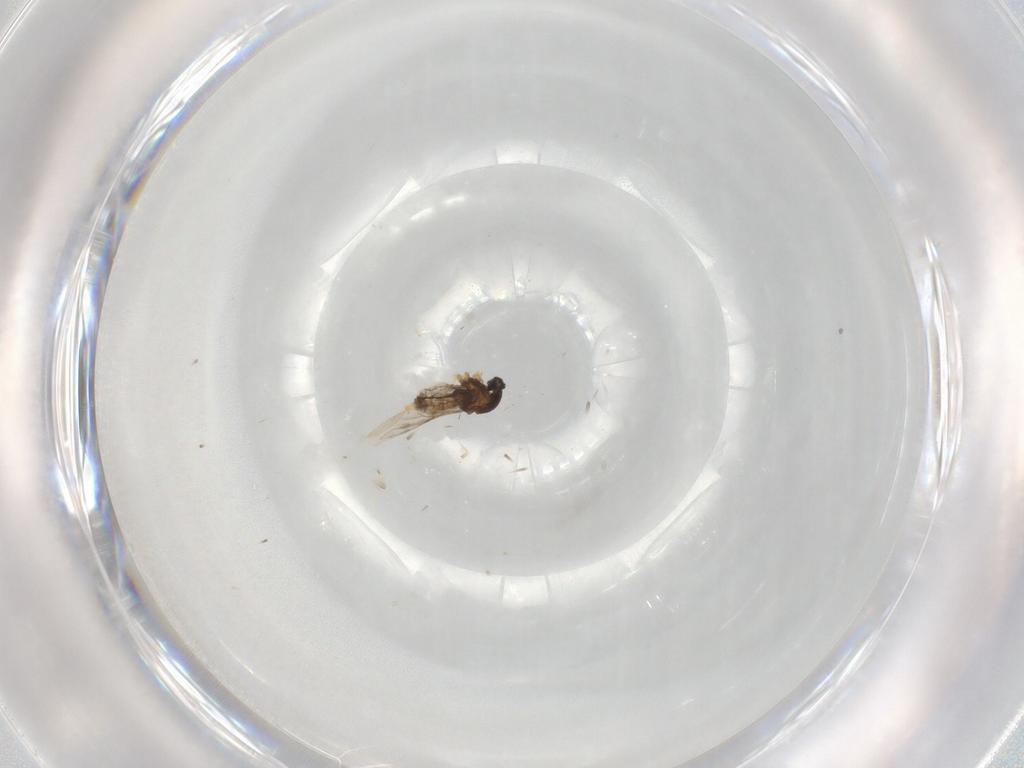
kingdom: Animalia
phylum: Arthropoda
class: Insecta
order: Diptera
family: Cecidomyiidae
